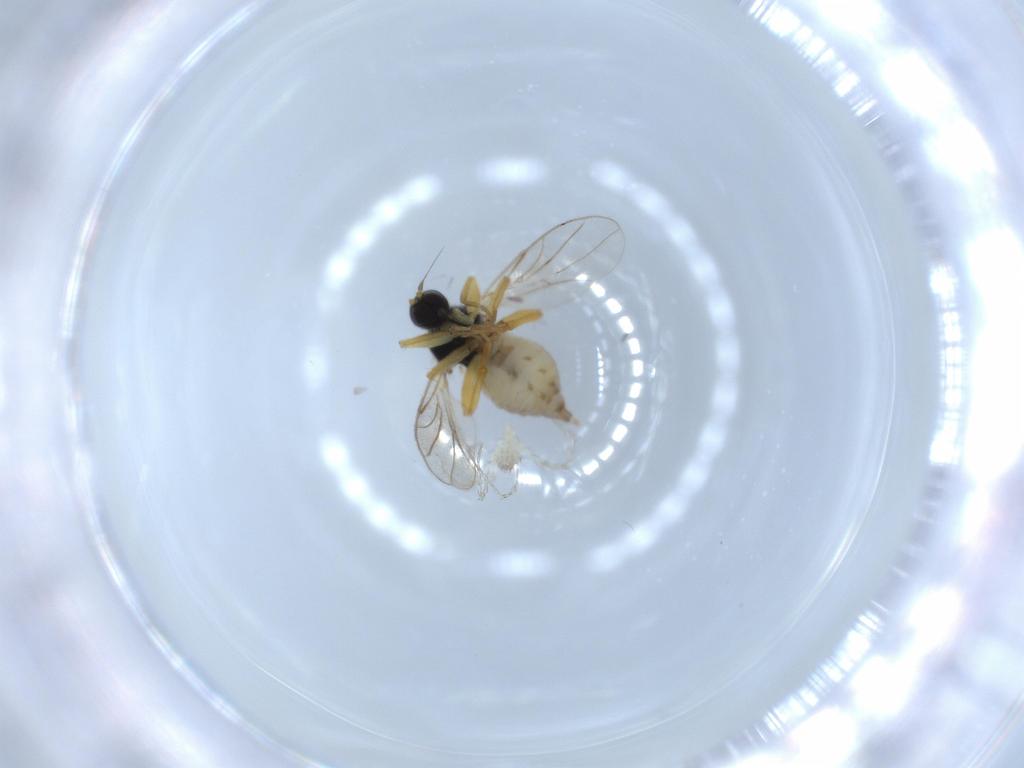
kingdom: Animalia
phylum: Arthropoda
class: Insecta
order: Diptera
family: Hybotidae
